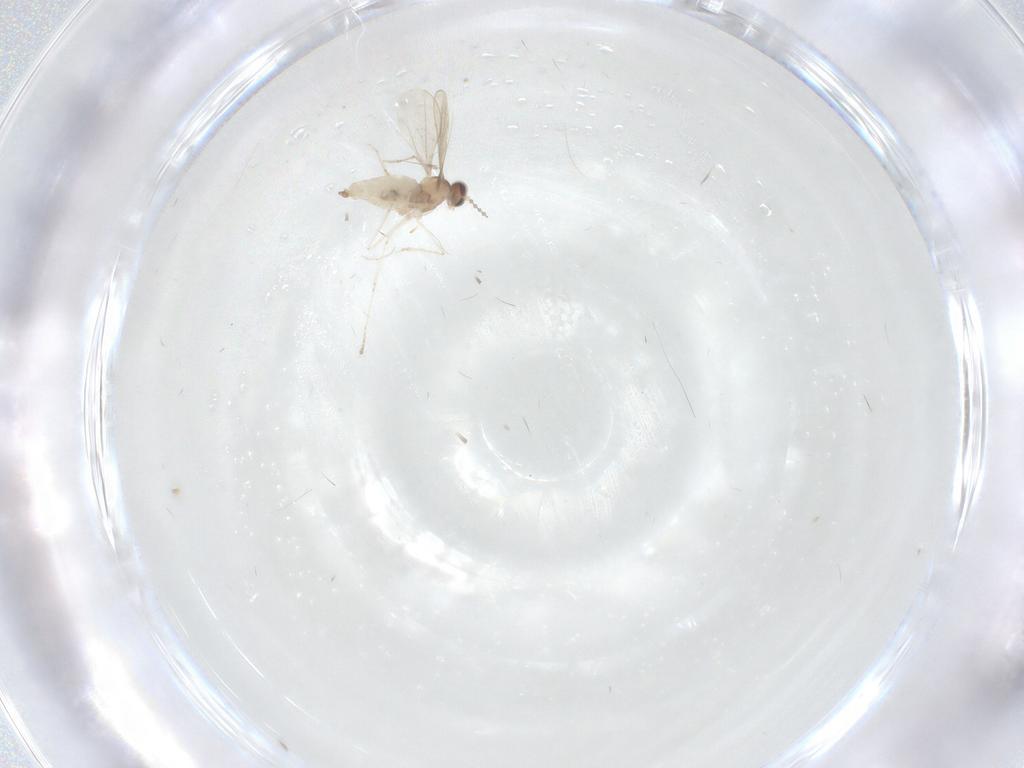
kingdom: Animalia
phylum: Arthropoda
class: Insecta
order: Diptera
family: Cecidomyiidae
